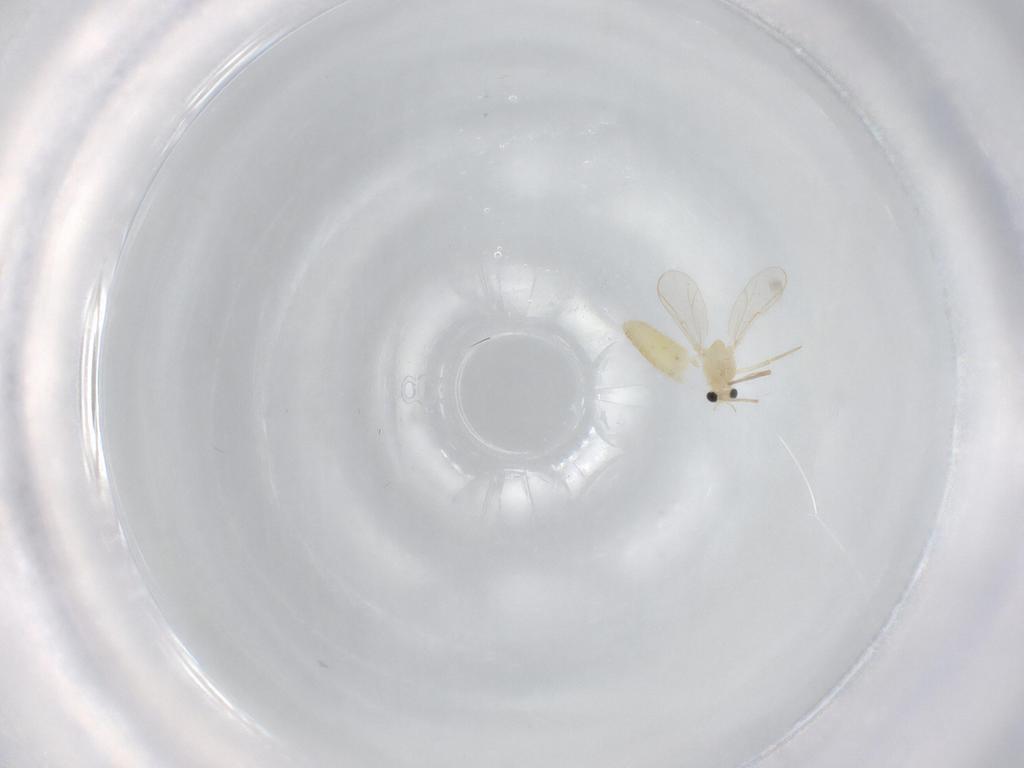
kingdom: Animalia
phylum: Arthropoda
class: Insecta
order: Diptera
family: Chironomidae
